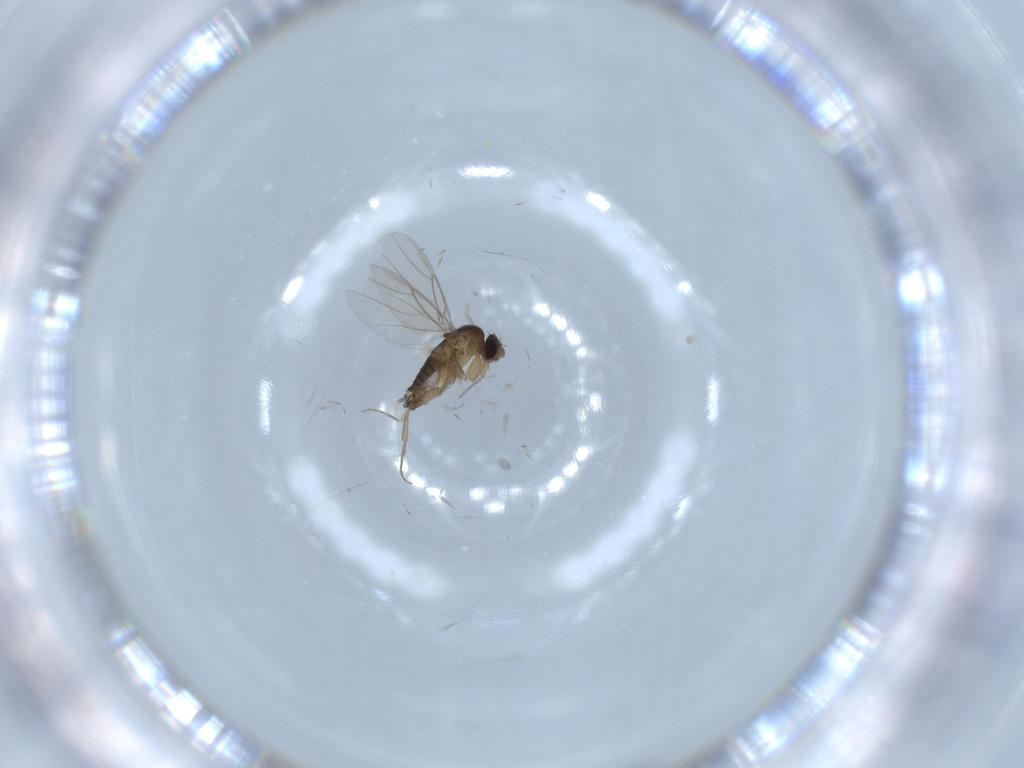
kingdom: Animalia
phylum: Arthropoda
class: Insecta
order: Diptera
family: Phoridae
